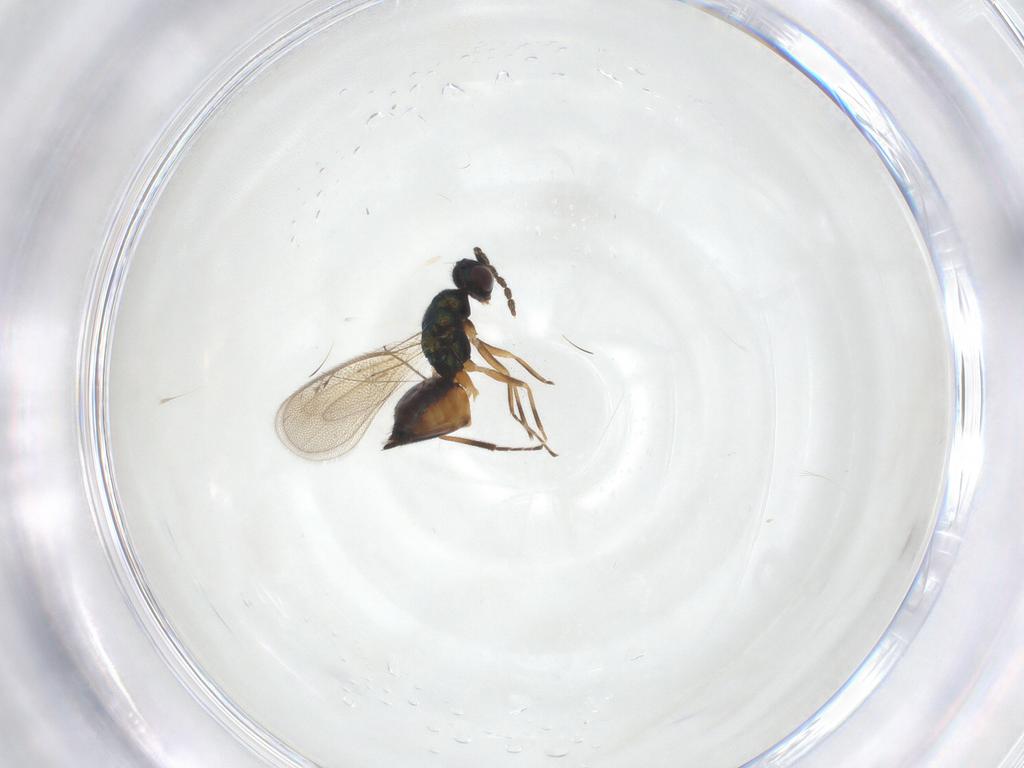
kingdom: Animalia
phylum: Arthropoda
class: Insecta
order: Hymenoptera
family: Eulophidae
